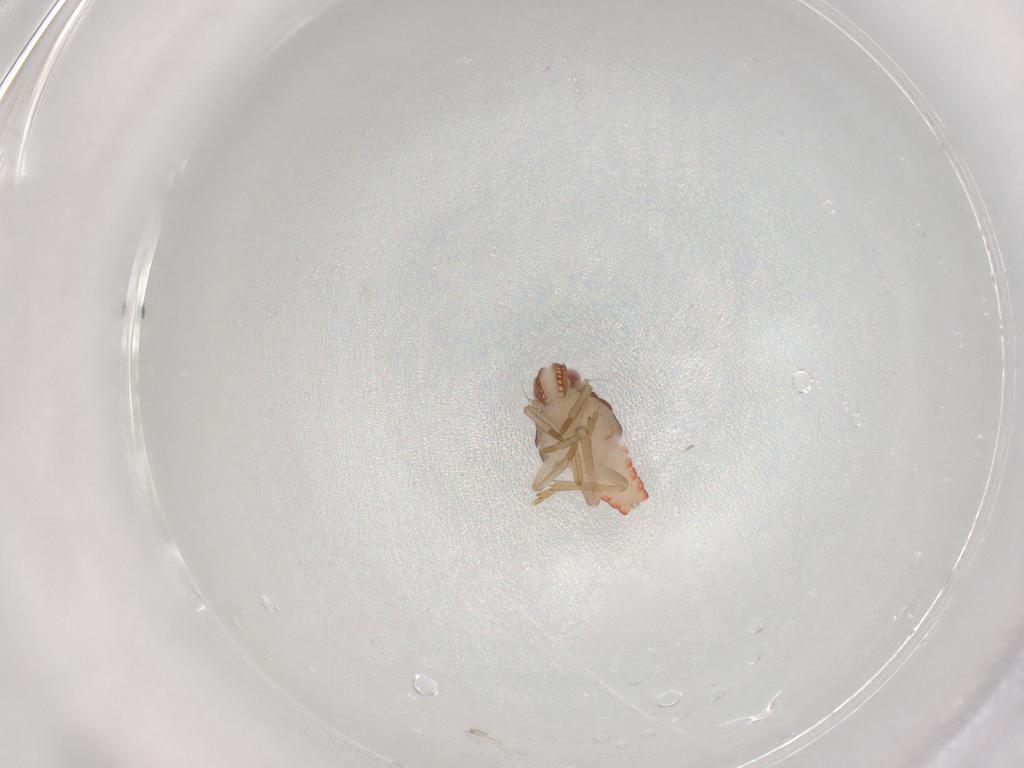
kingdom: Animalia
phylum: Arthropoda
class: Insecta
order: Hemiptera
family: Nogodinidae
